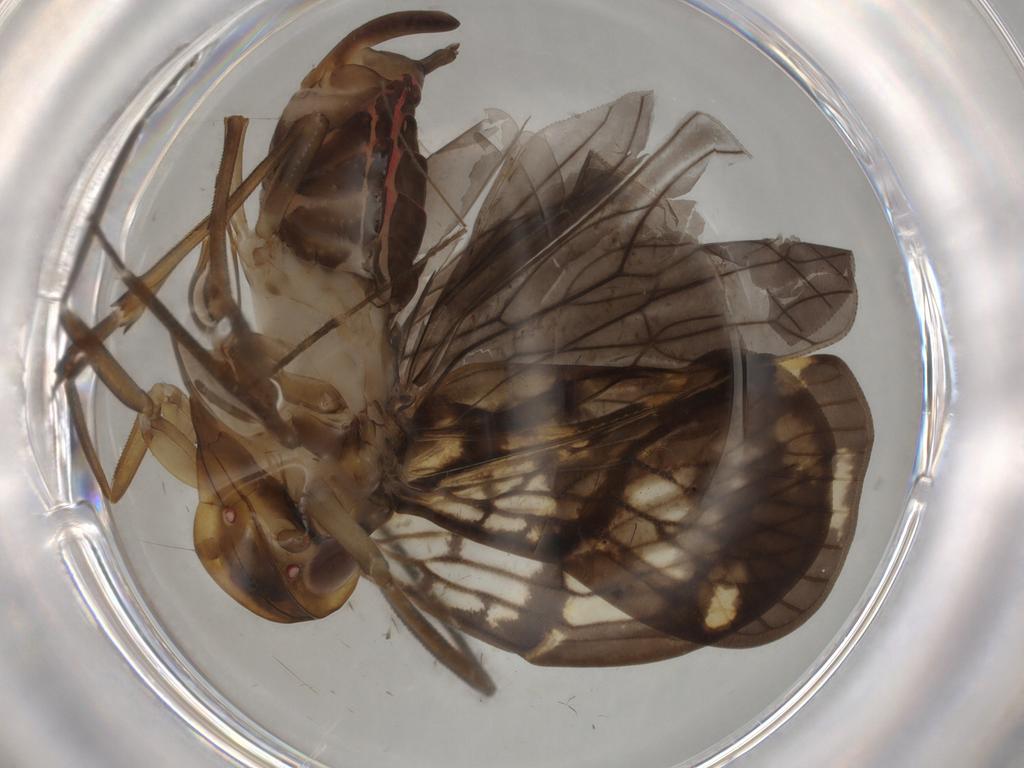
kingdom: Animalia
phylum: Arthropoda
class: Insecta
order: Hemiptera
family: Cixiidae
